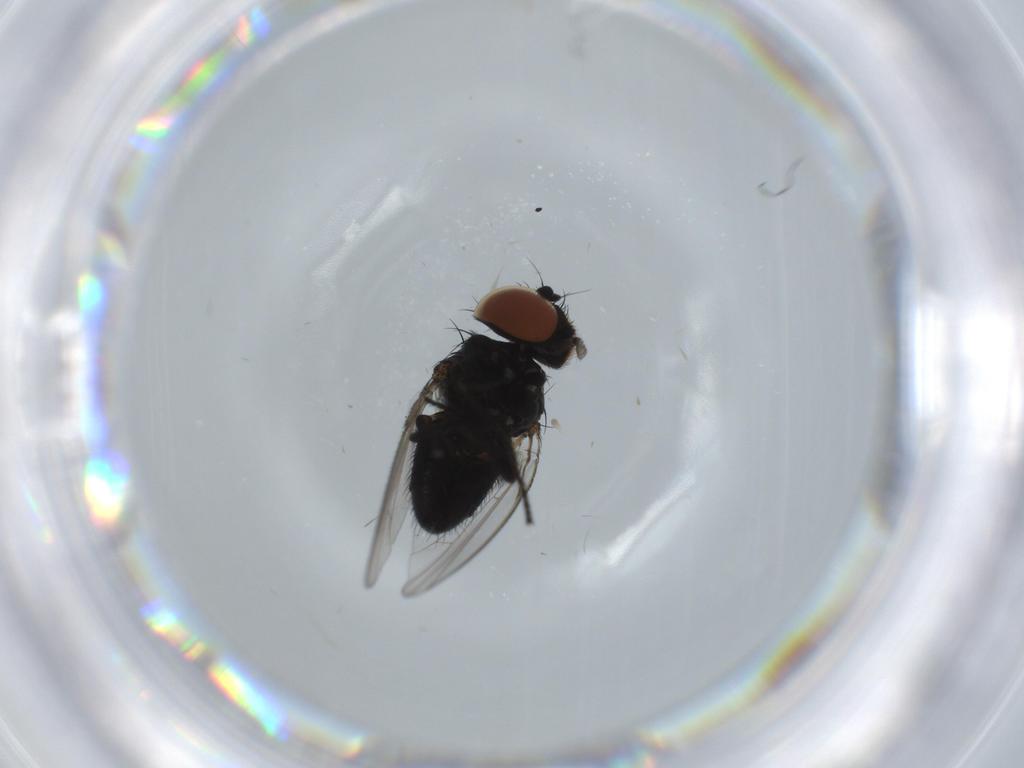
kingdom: Animalia
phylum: Arthropoda
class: Insecta
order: Diptera
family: Milichiidae
